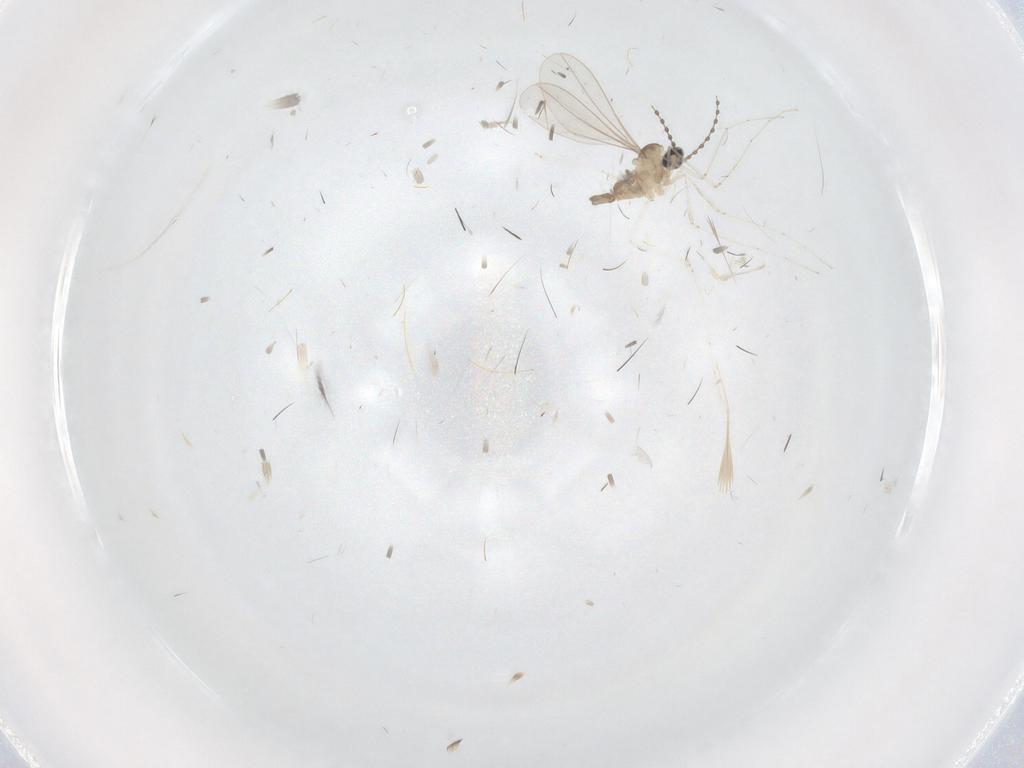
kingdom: Animalia
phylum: Arthropoda
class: Insecta
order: Diptera
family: Cecidomyiidae
